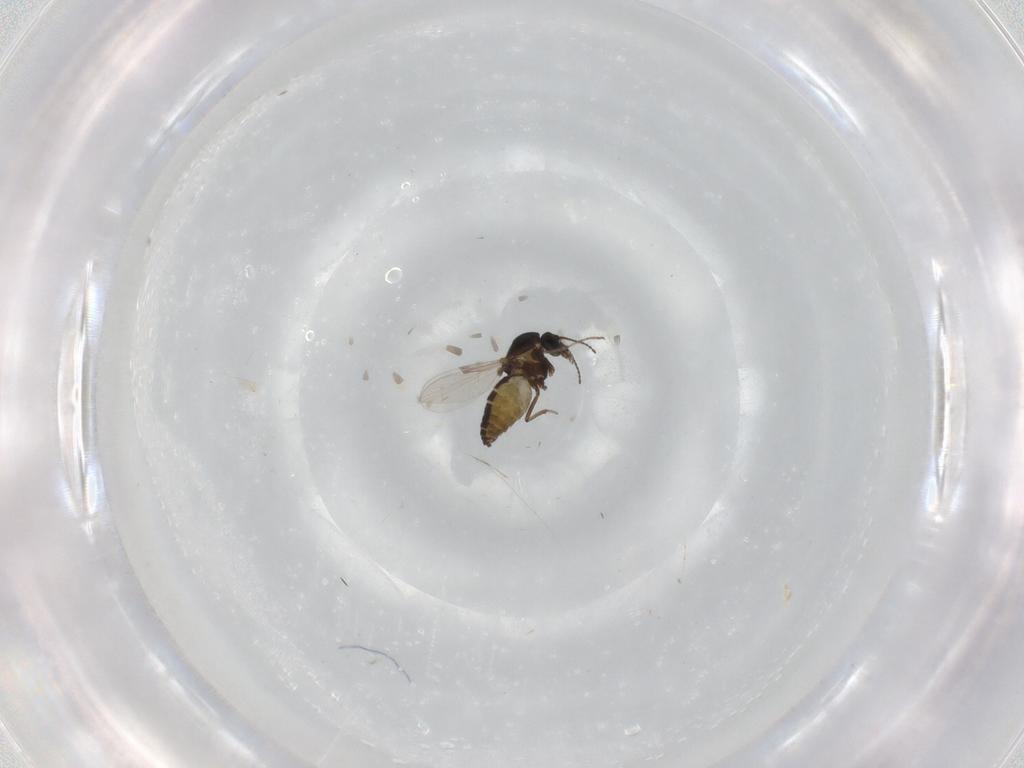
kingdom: Animalia
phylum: Arthropoda
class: Insecta
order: Diptera
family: Ceratopogonidae
